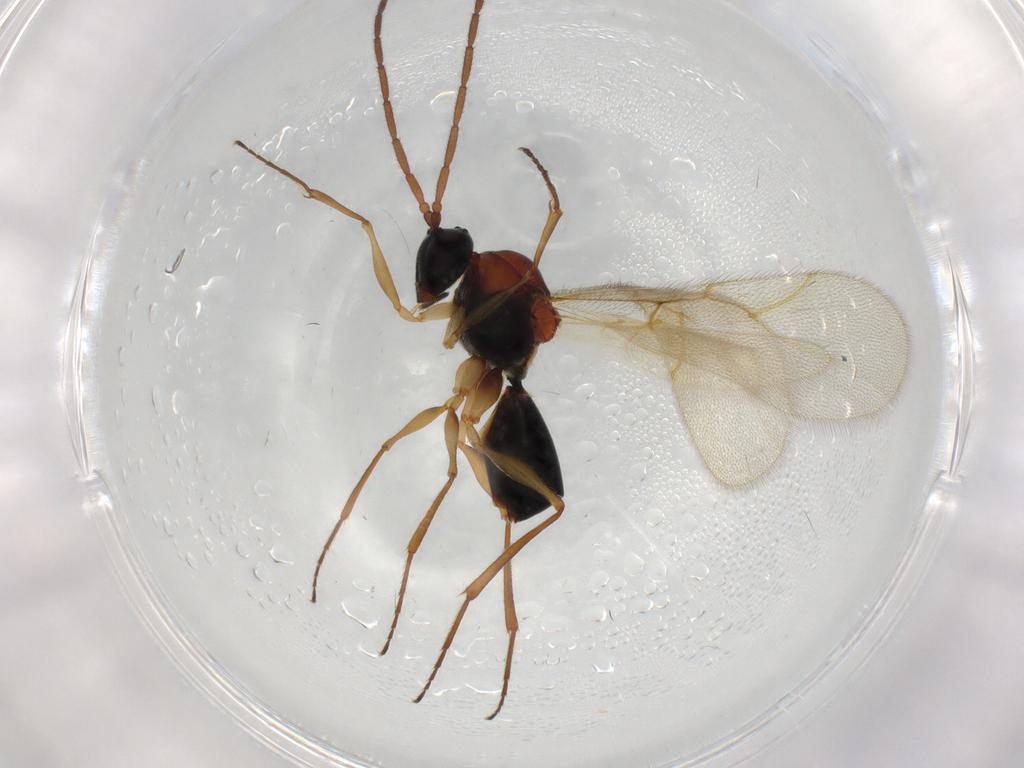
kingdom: Animalia
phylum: Arthropoda
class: Insecta
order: Hymenoptera
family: Figitidae
